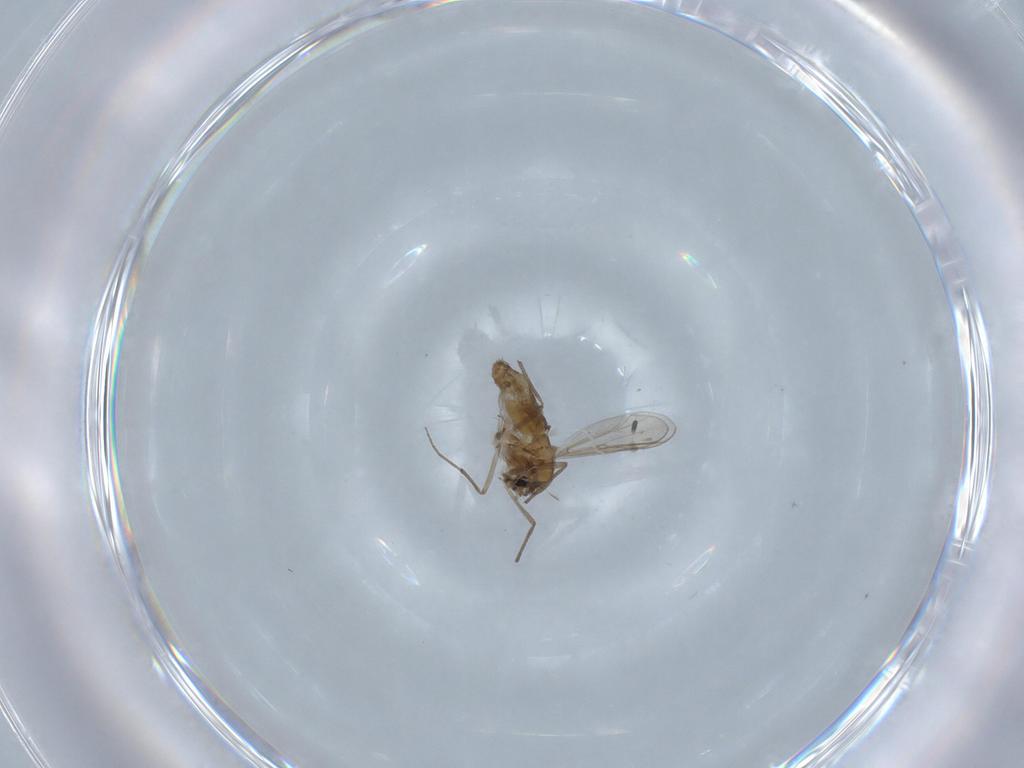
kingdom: Animalia
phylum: Arthropoda
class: Insecta
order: Diptera
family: Chironomidae
